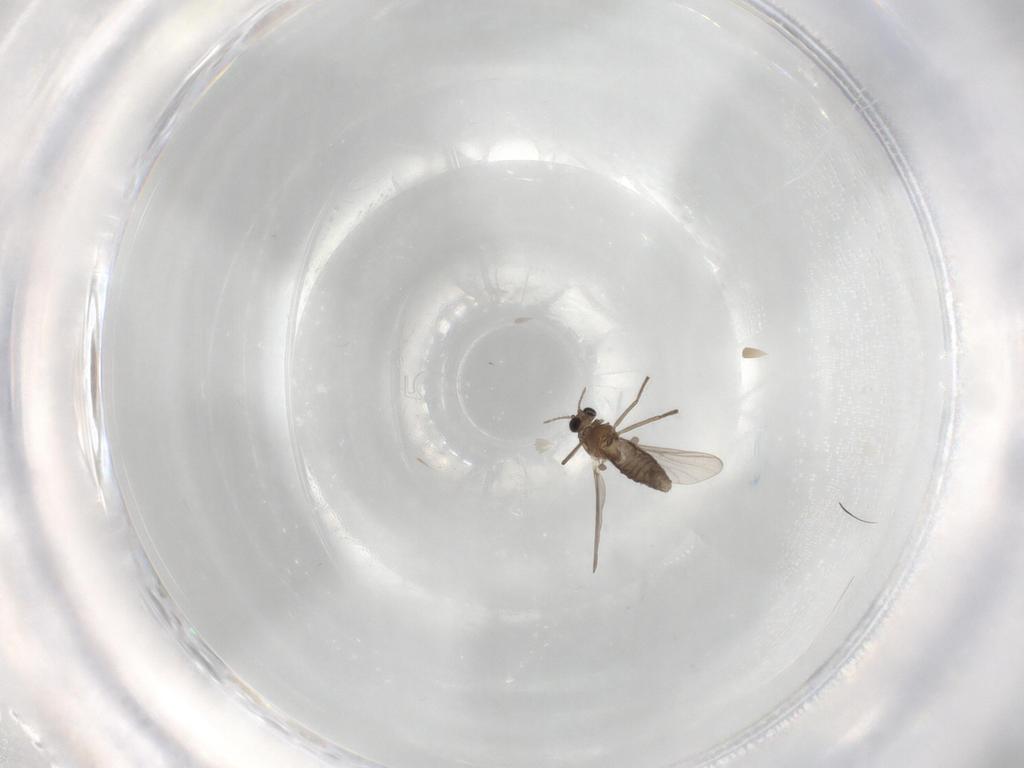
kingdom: Animalia
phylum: Arthropoda
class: Insecta
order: Diptera
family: Chironomidae
